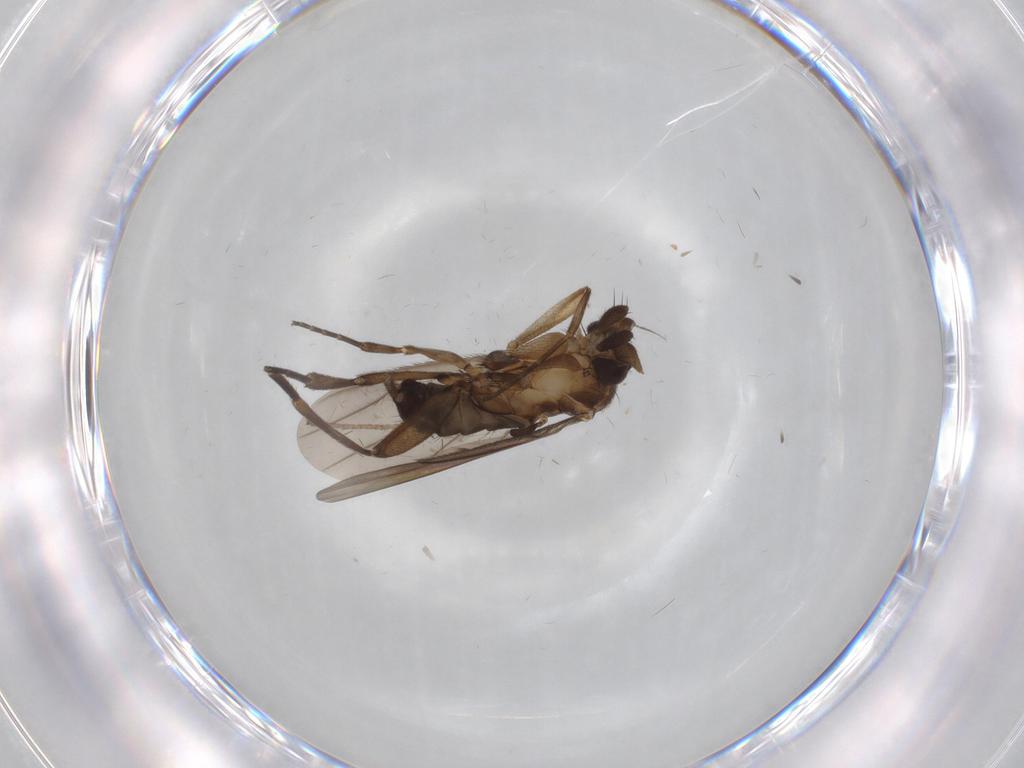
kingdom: Animalia
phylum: Arthropoda
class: Insecta
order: Diptera
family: Phoridae
